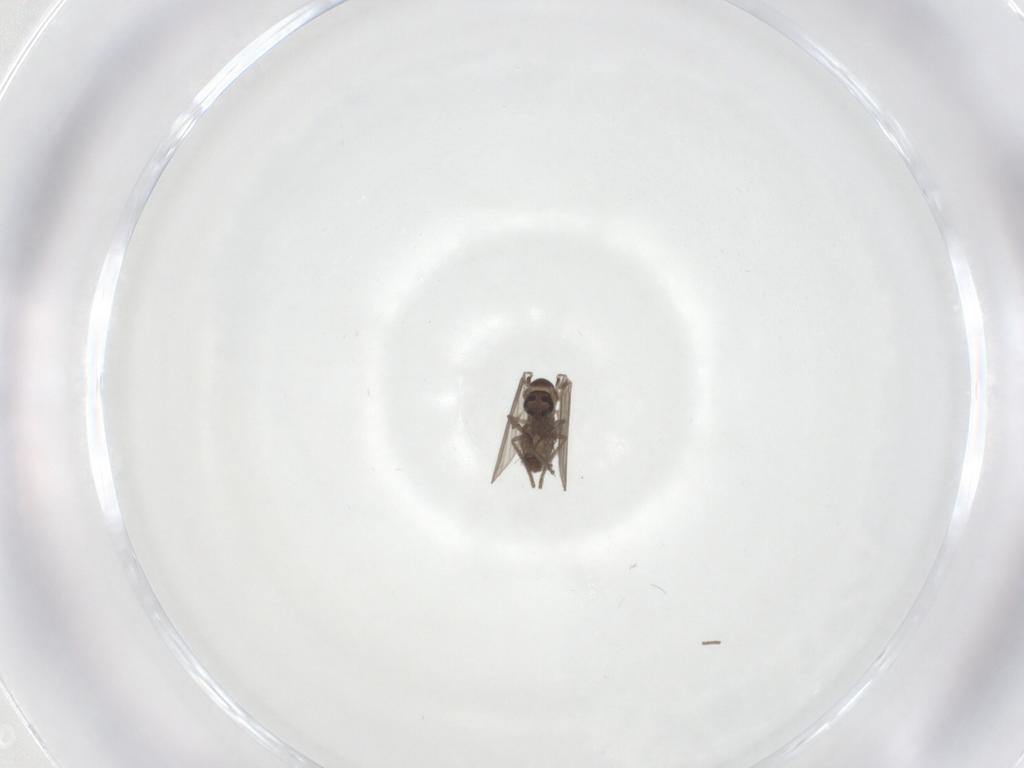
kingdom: Animalia
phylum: Arthropoda
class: Insecta
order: Diptera
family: Psychodidae
